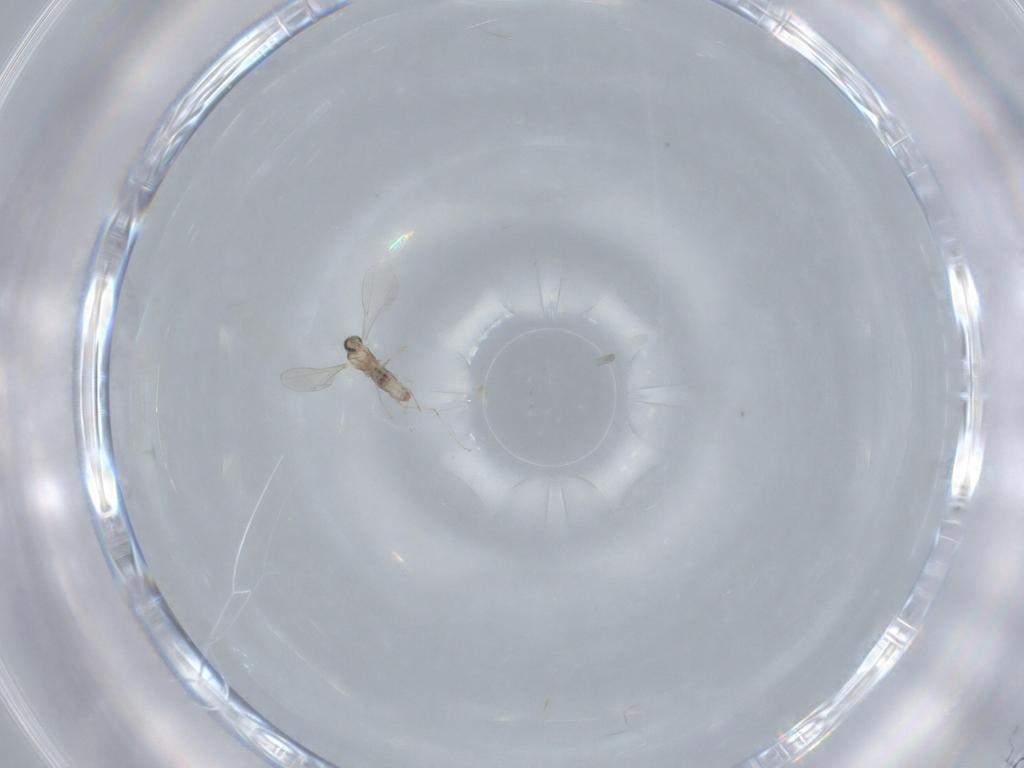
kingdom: Animalia
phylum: Arthropoda
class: Insecta
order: Diptera
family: Cecidomyiidae
